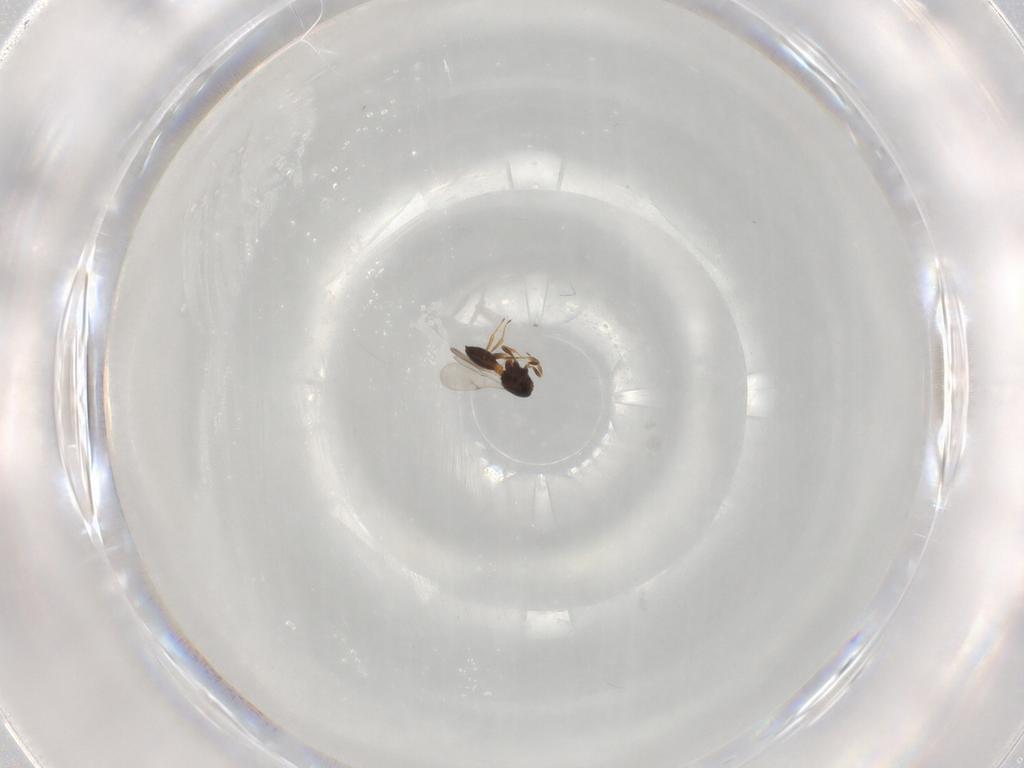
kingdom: Animalia
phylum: Arthropoda
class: Insecta
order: Hymenoptera
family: Scelionidae
